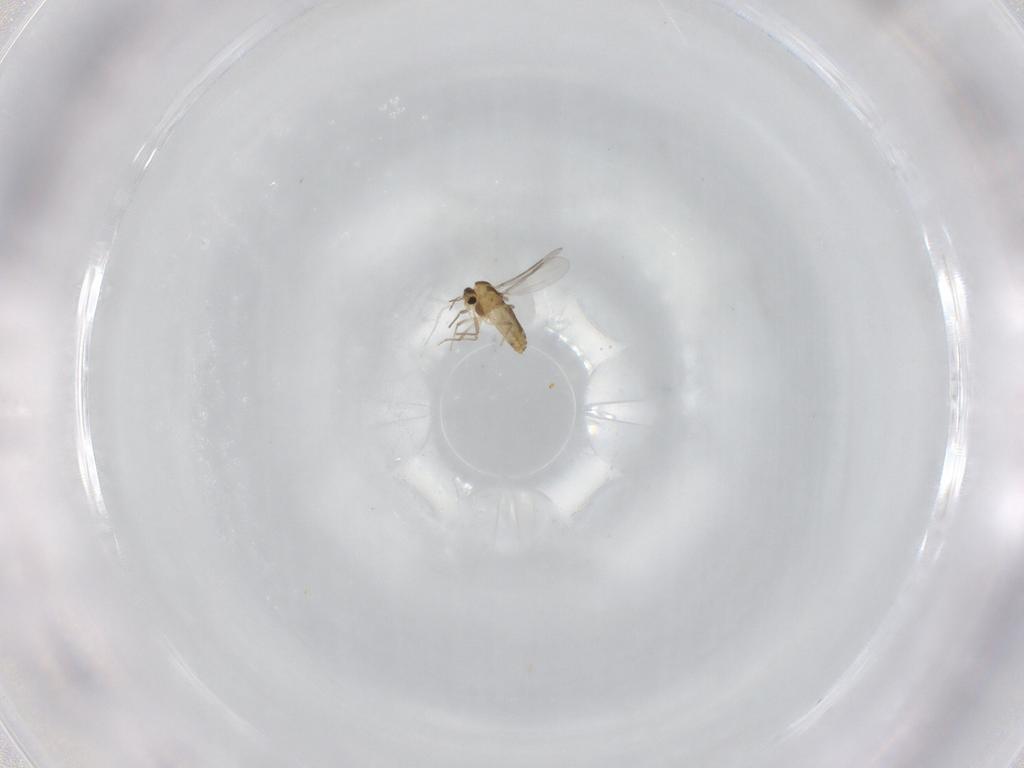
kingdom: Animalia
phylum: Arthropoda
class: Insecta
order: Diptera
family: Chironomidae
